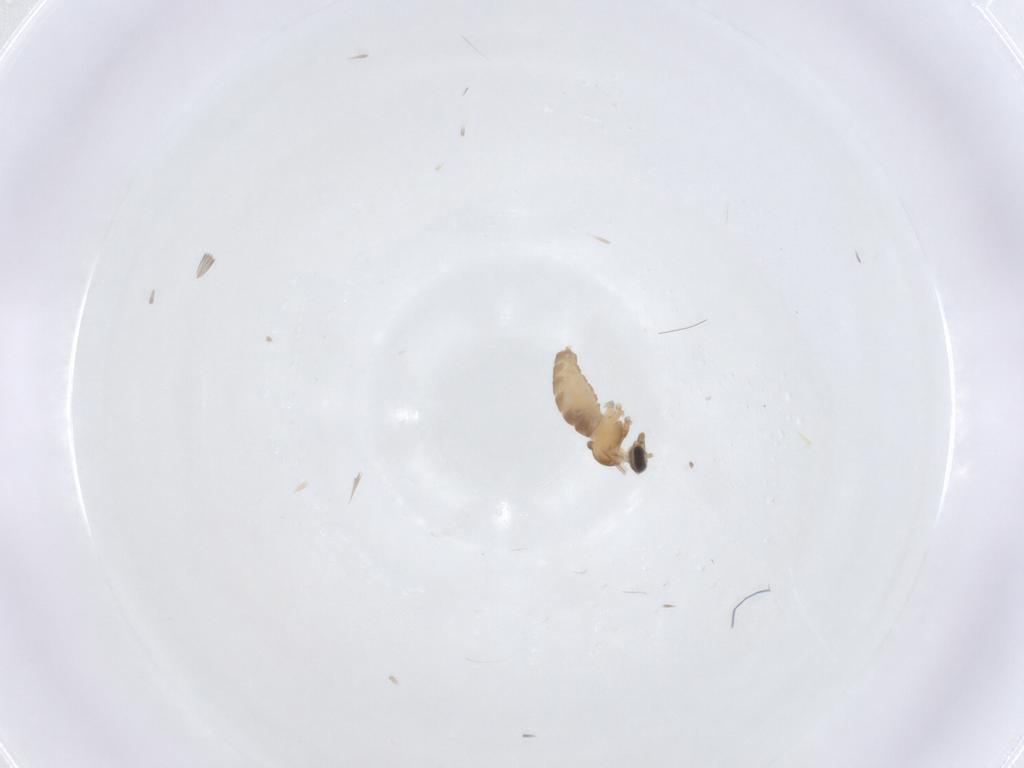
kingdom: Animalia
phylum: Arthropoda
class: Insecta
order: Diptera
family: Cecidomyiidae
